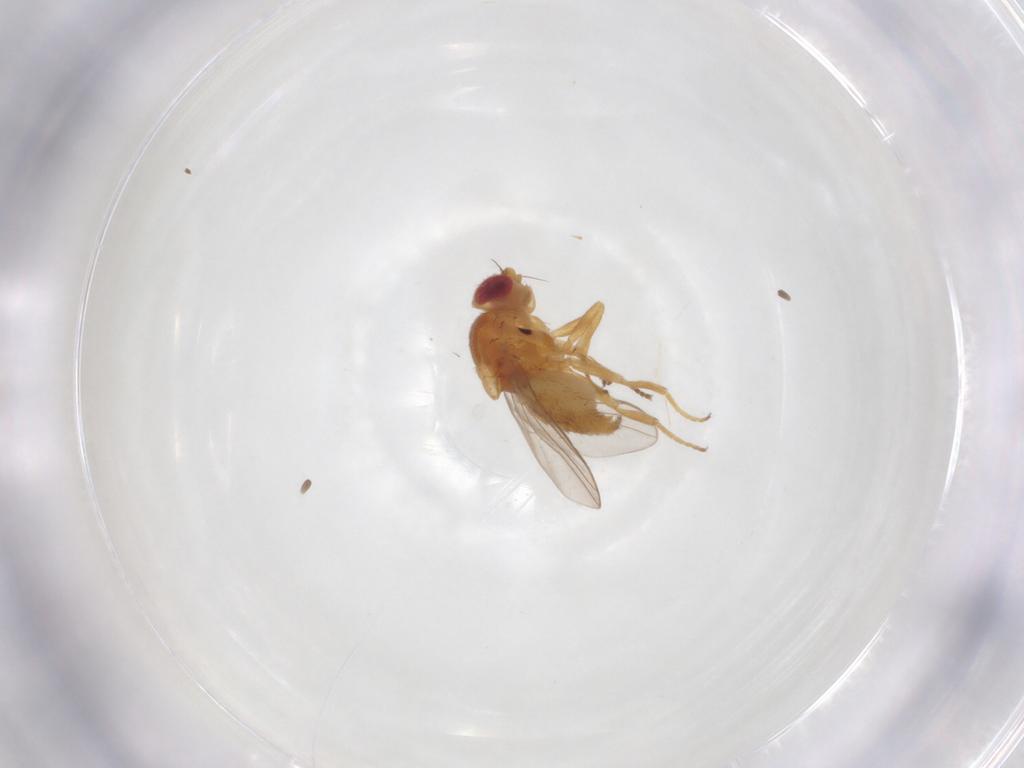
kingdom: Animalia
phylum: Arthropoda
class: Insecta
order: Diptera
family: Chloropidae
